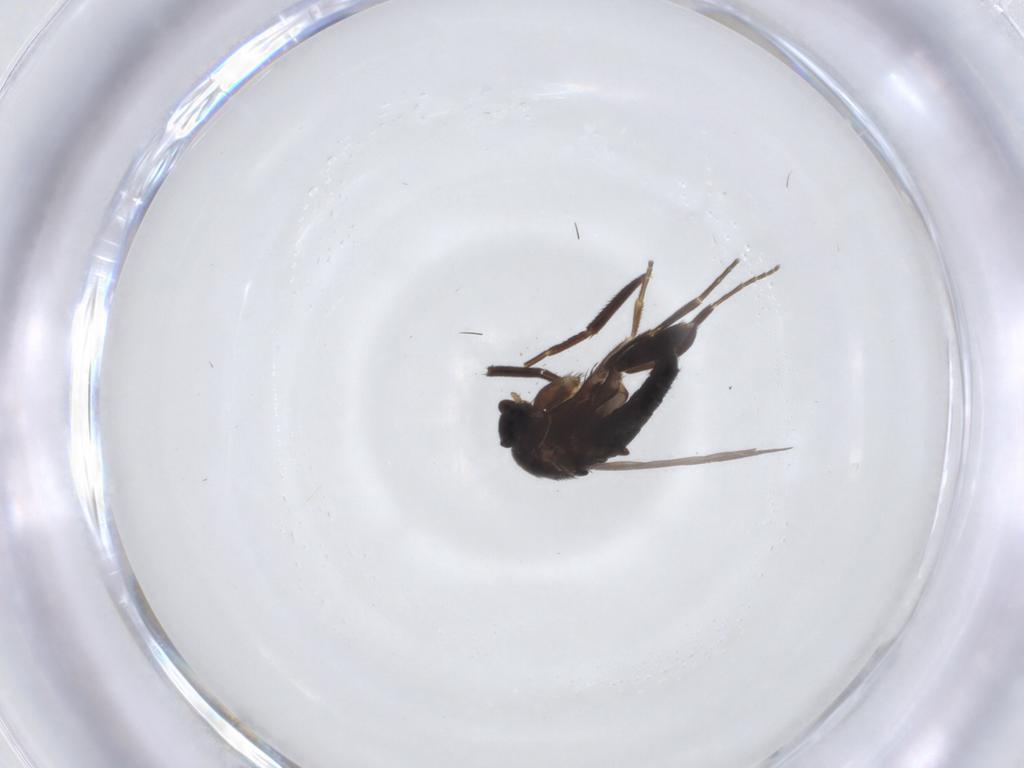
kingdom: Animalia
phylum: Arthropoda
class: Insecta
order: Diptera
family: Phoridae
